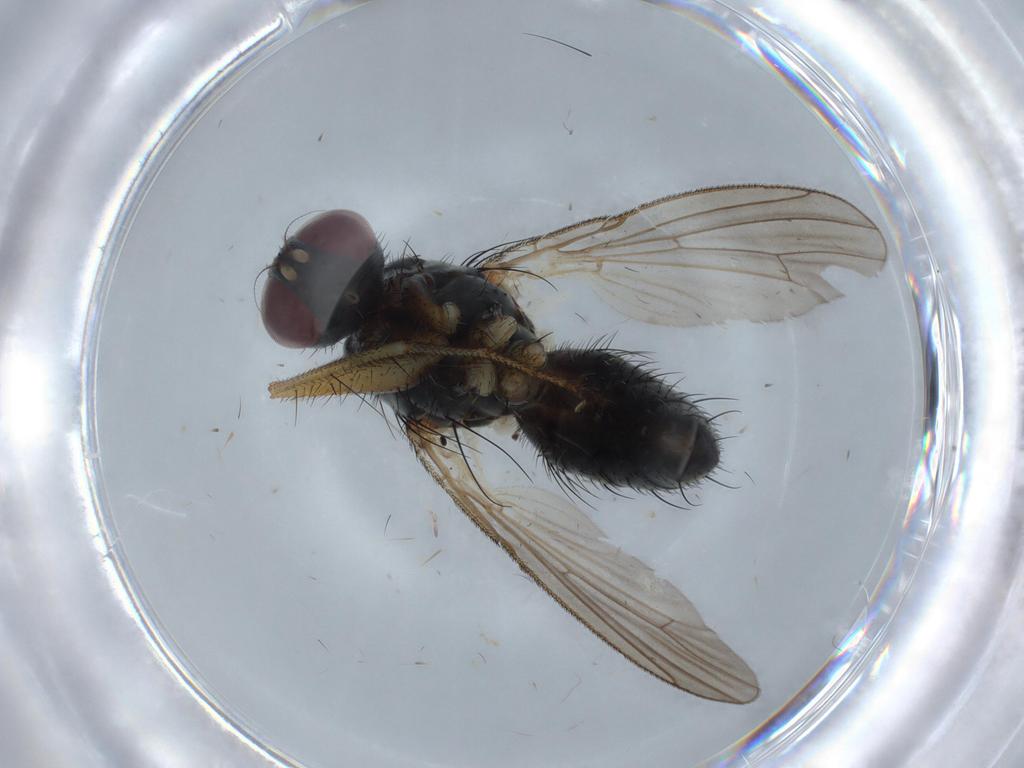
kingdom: Animalia
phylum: Arthropoda
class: Insecta
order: Diptera
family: Muscidae
